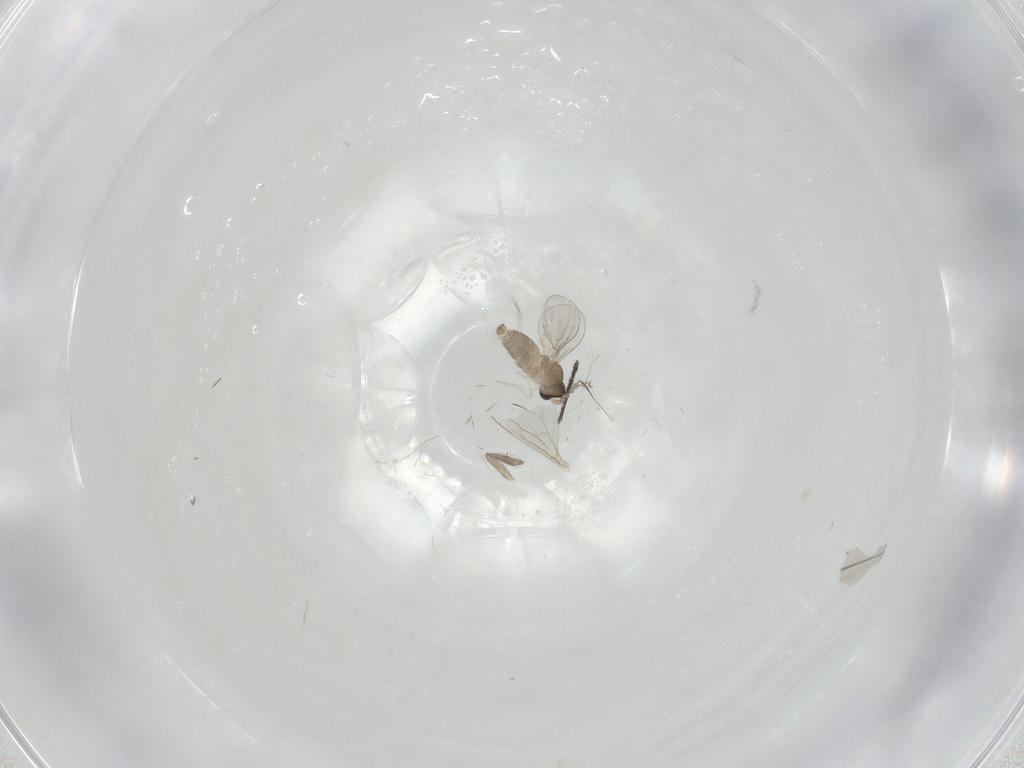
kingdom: Animalia
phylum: Arthropoda
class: Insecta
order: Diptera
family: Cecidomyiidae
